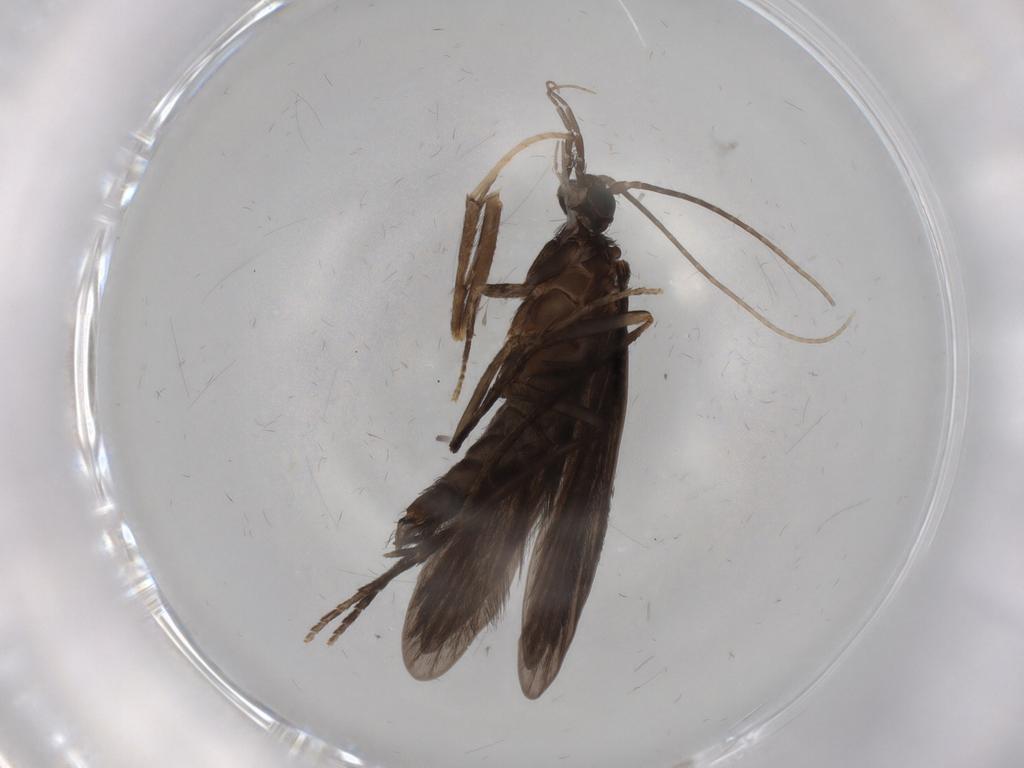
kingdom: Animalia
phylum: Arthropoda
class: Insecta
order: Trichoptera
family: Xiphocentronidae
